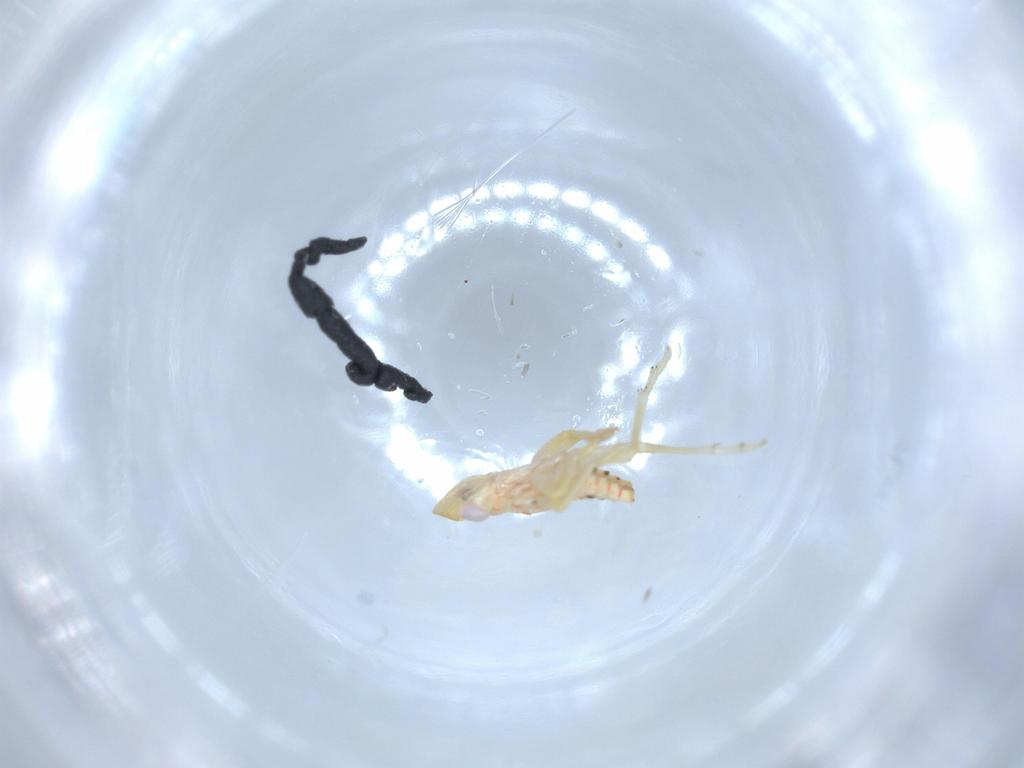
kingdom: Animalia
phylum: Arthropoda
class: Insecta
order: Hemiptera
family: Tropiduchidae
